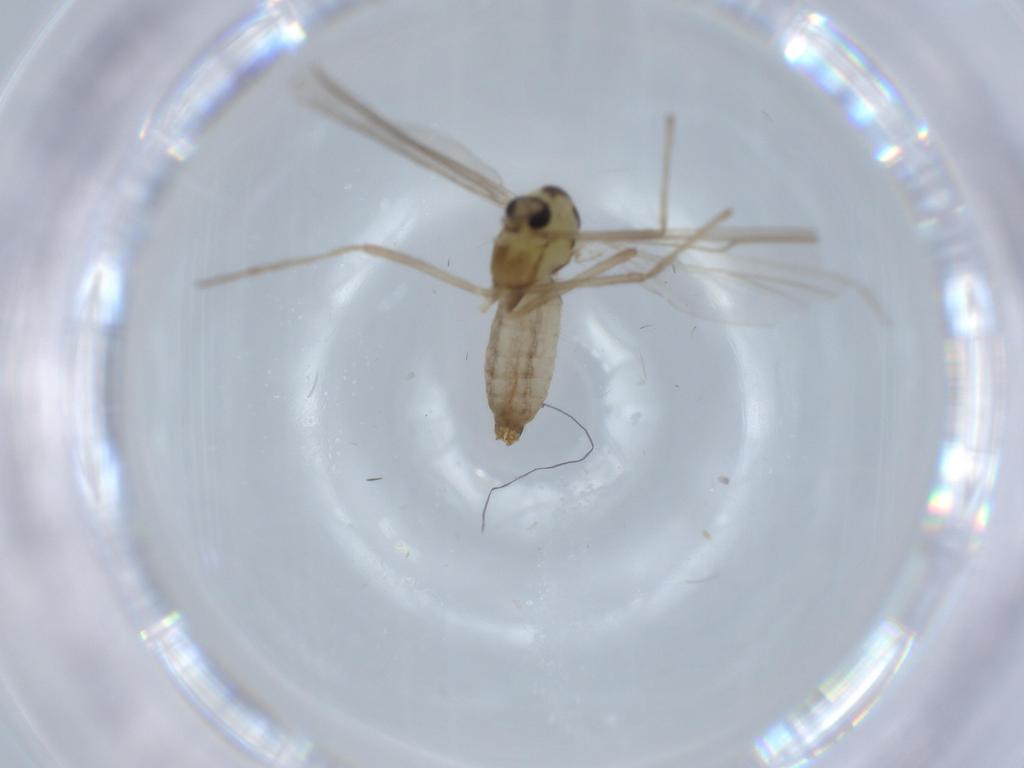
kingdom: Animalia
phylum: Arthropoda
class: Insecta
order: Diptera
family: Chironomidae
